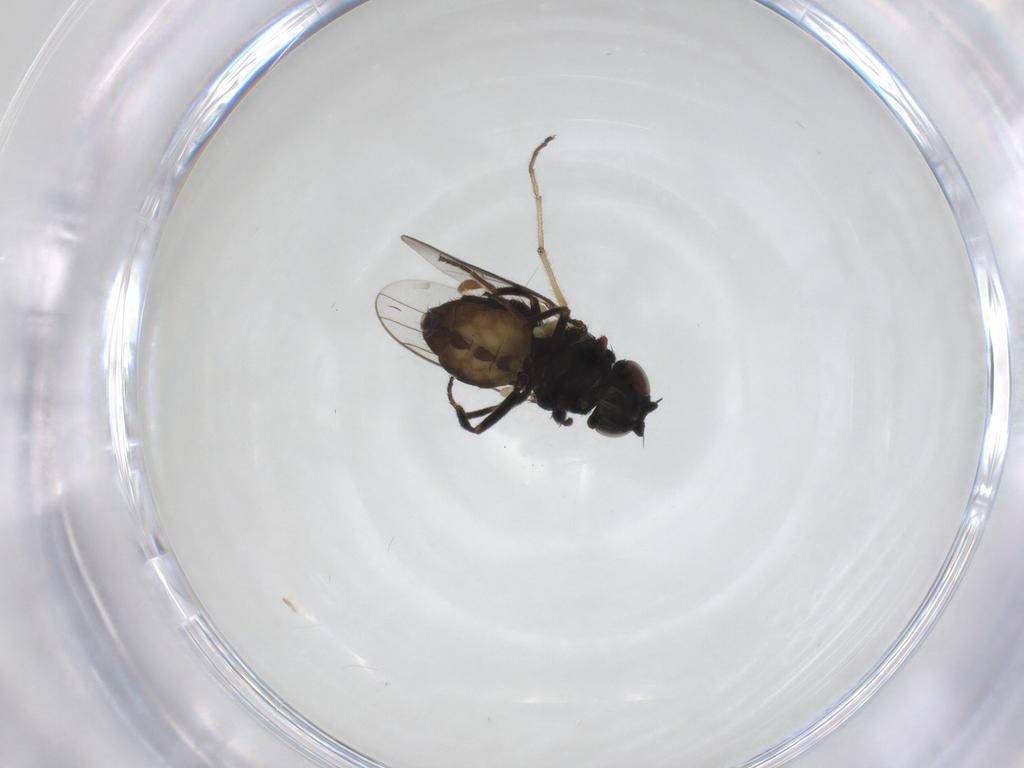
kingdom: Animalia
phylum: Arthropoda
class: Insecta
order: Diptera
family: Chloropidae
